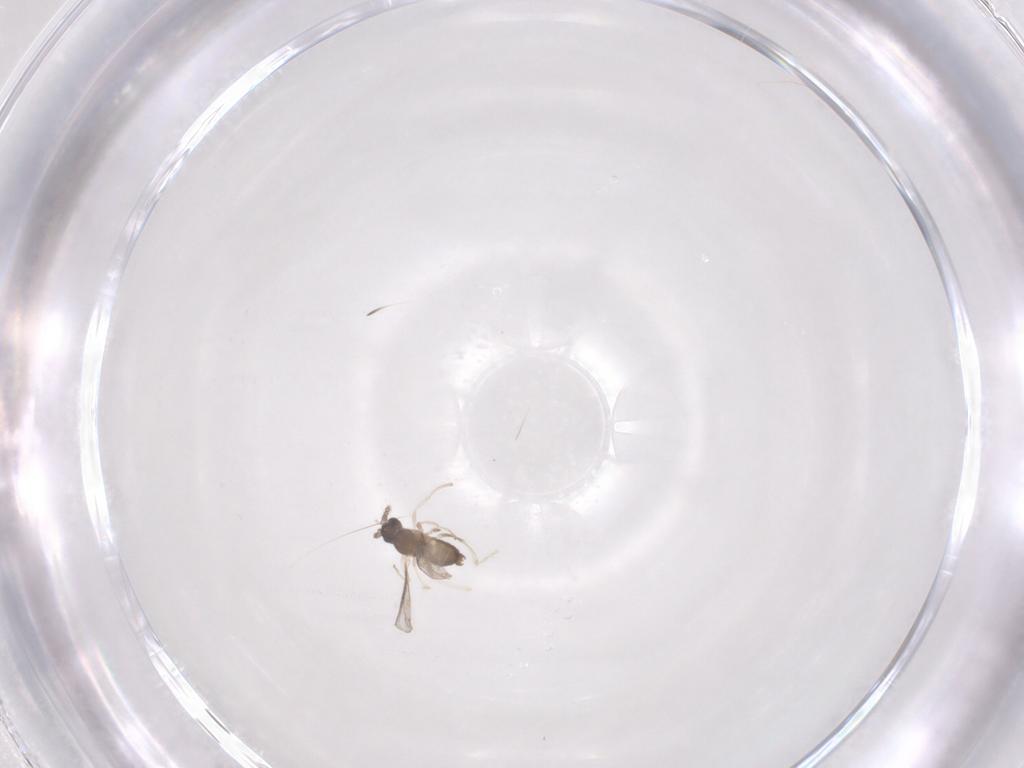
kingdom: Animalia
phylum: Arthropoda
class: Insecta
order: Diptera
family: Cecidomyiidae
